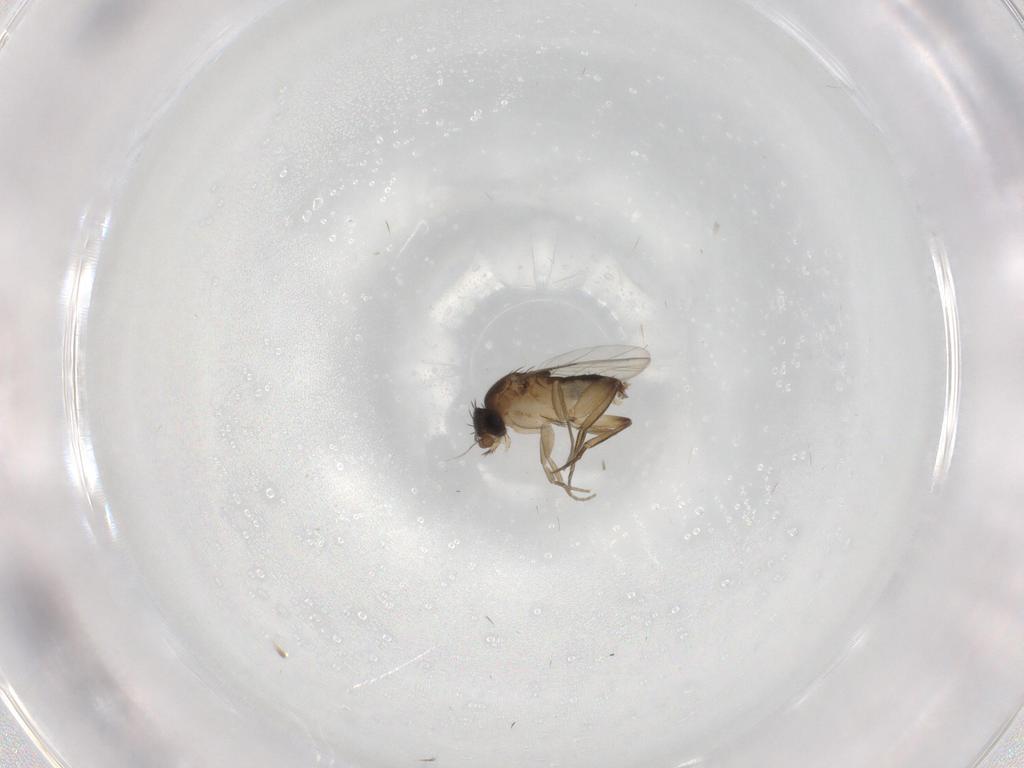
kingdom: Animalia
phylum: Arthropoda
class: Insecta
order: Diptera
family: Phoridae
